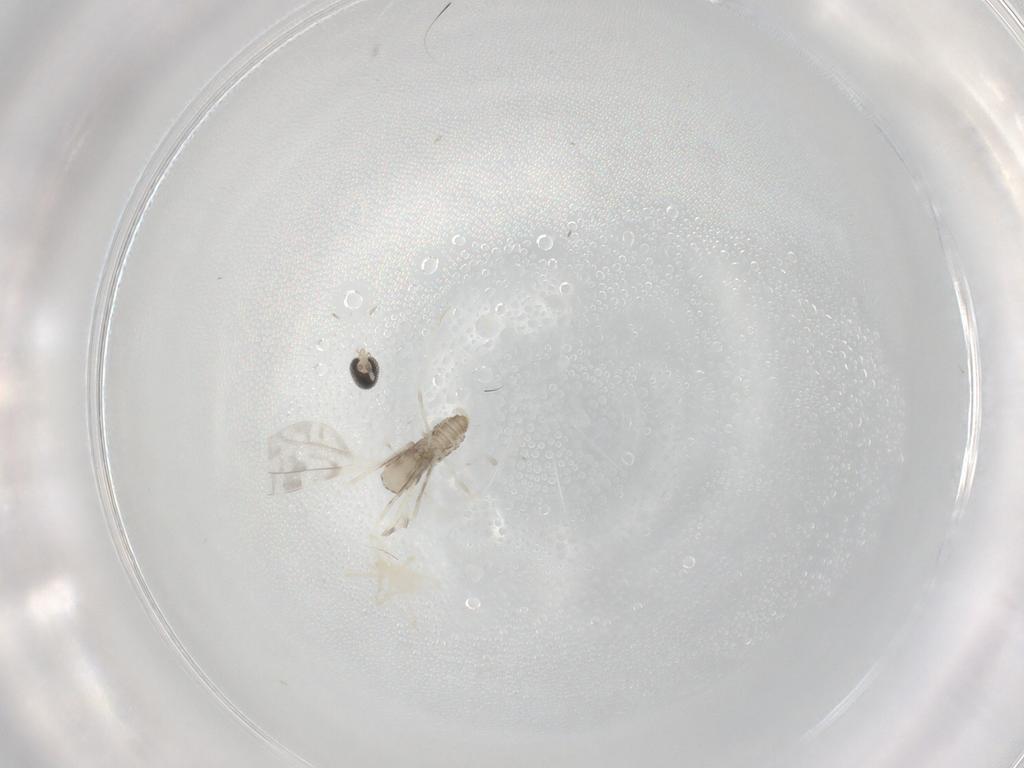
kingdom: Animalia
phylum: Arthropoda
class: Insecta
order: Diptera
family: Cecidomyiidae
